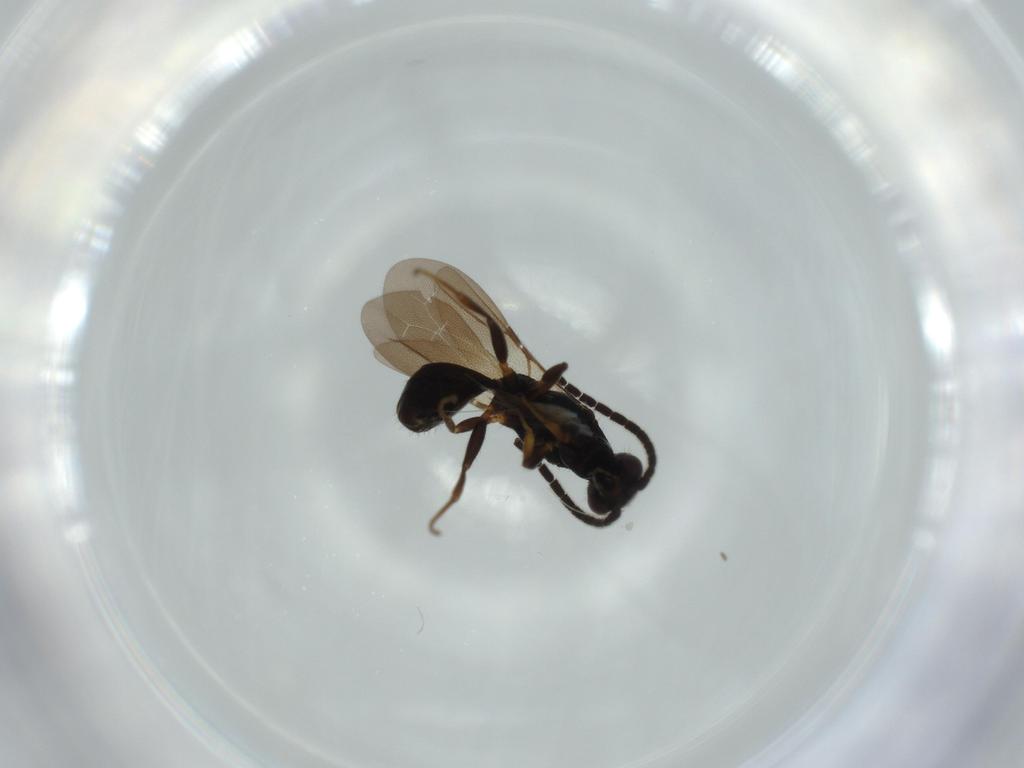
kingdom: Animalia
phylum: Arthropoda
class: Insecta
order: Hymenoptera
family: Bethylidae
